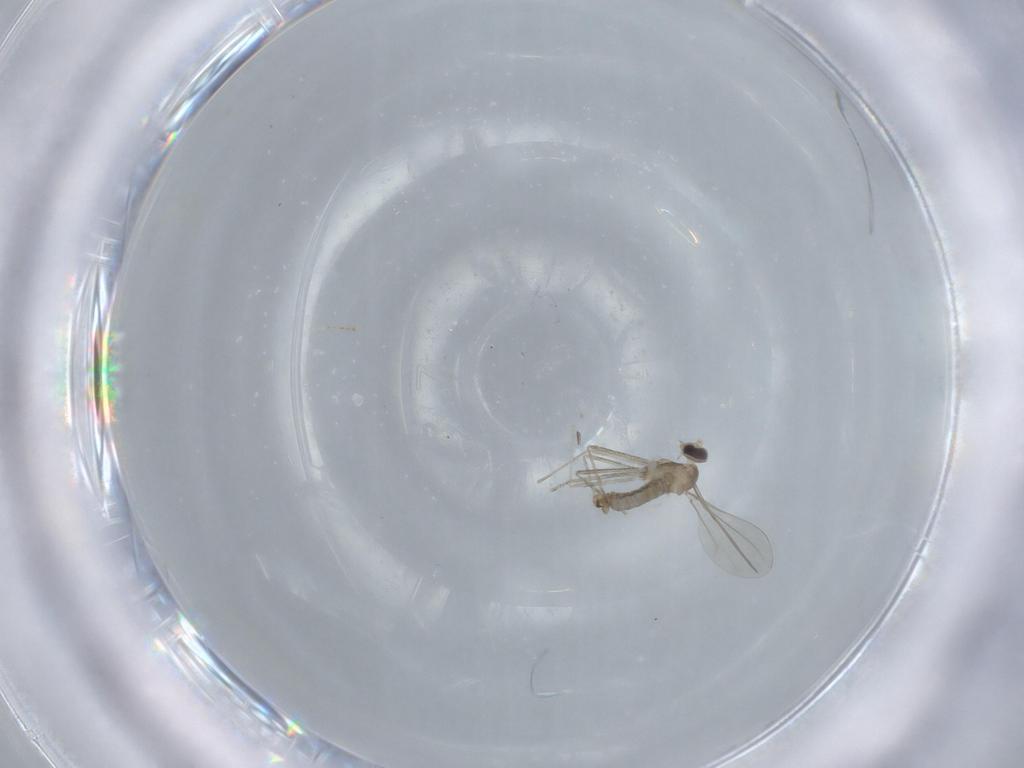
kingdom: Animalia
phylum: Arthropoda
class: Insecta
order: Diptera
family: Cecidomyiidae
